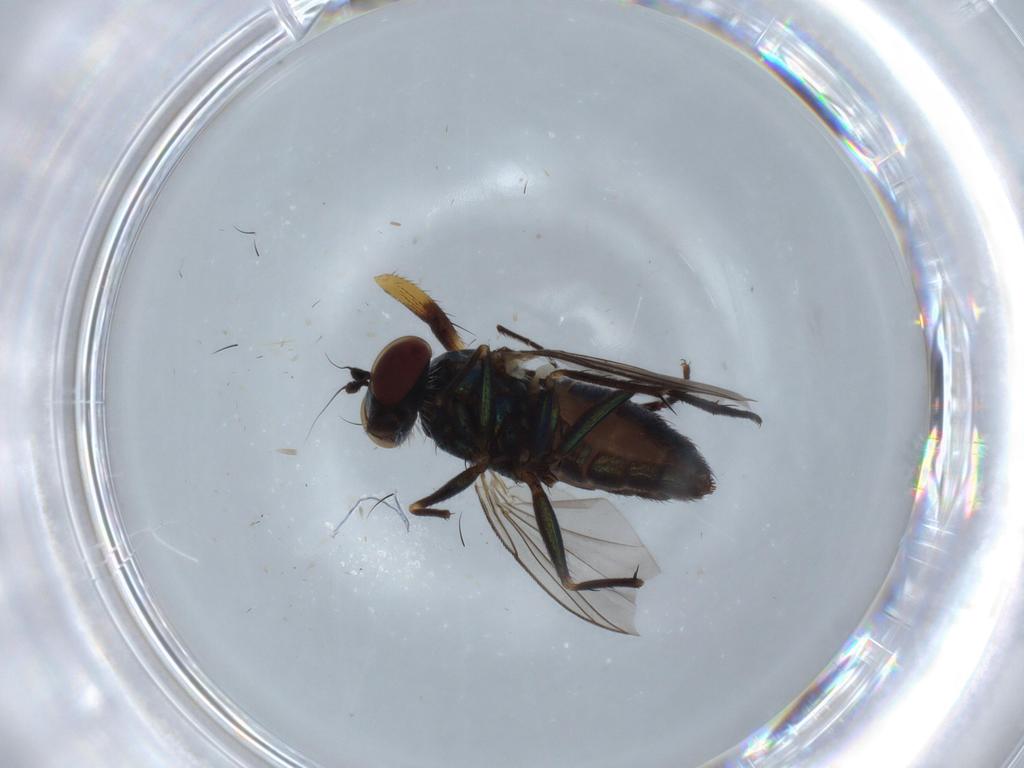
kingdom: Animalia
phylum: Arthropoda
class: Insecta
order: Diptera
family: Dolichopodidae
